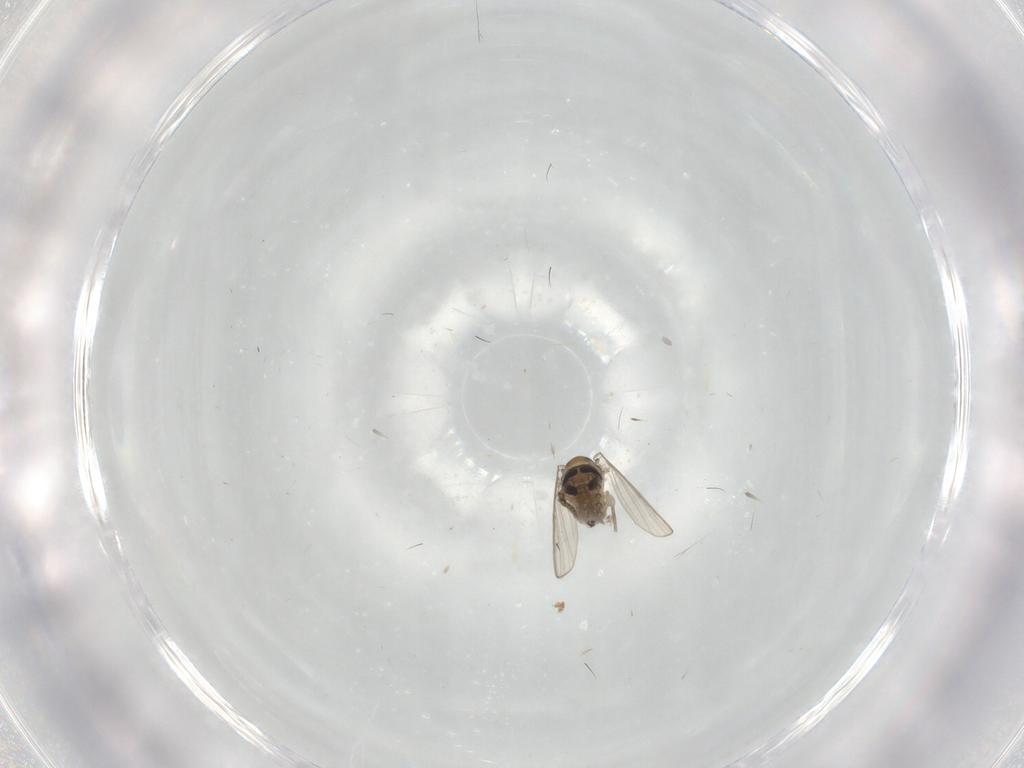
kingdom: Animalia
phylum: Arthropoda
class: Insecta
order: Diptera
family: Psychodidae
